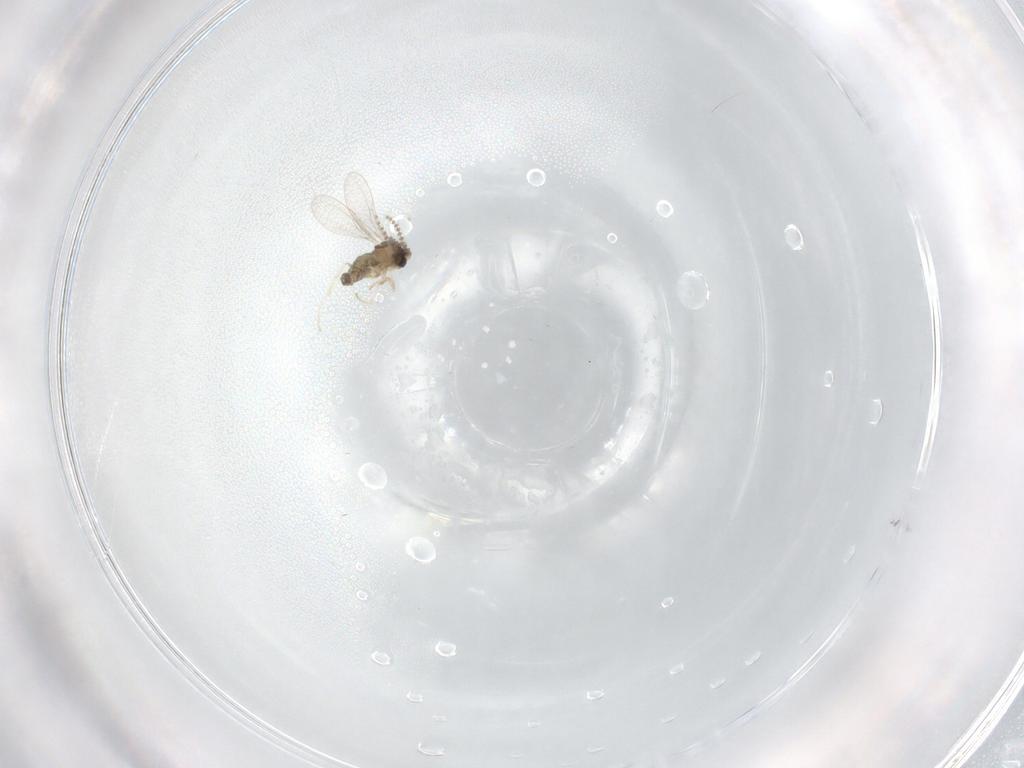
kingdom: Animalia
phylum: Arthropoda
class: Insecta
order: Diptera
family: Cecidomyiidae
